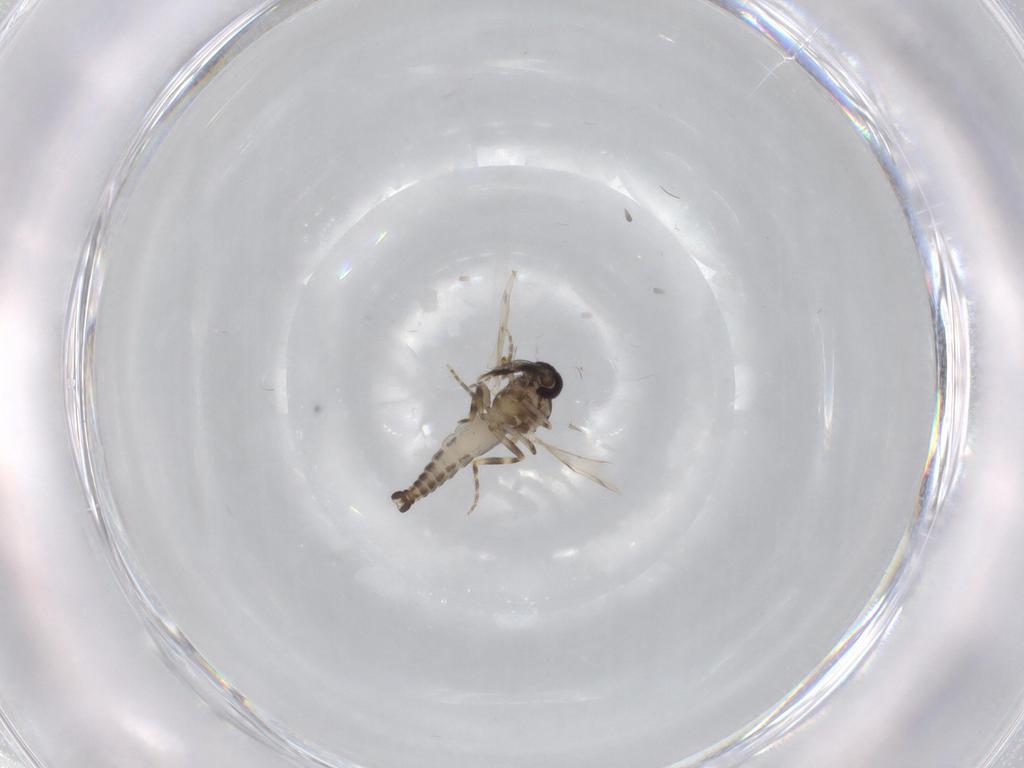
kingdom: Animalia
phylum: Arthropoda
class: Insecta
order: Diptera
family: Ceratopogonidae
